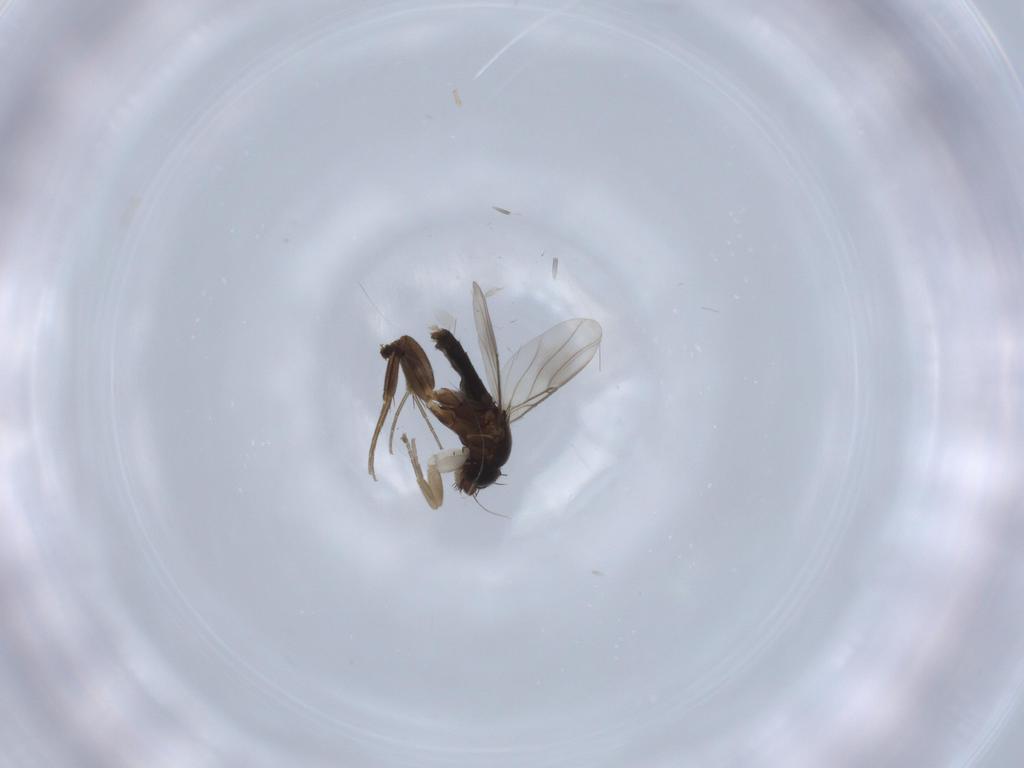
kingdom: Animalia
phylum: Arthropoda
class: Insecta
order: Diptera
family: Phoridae
